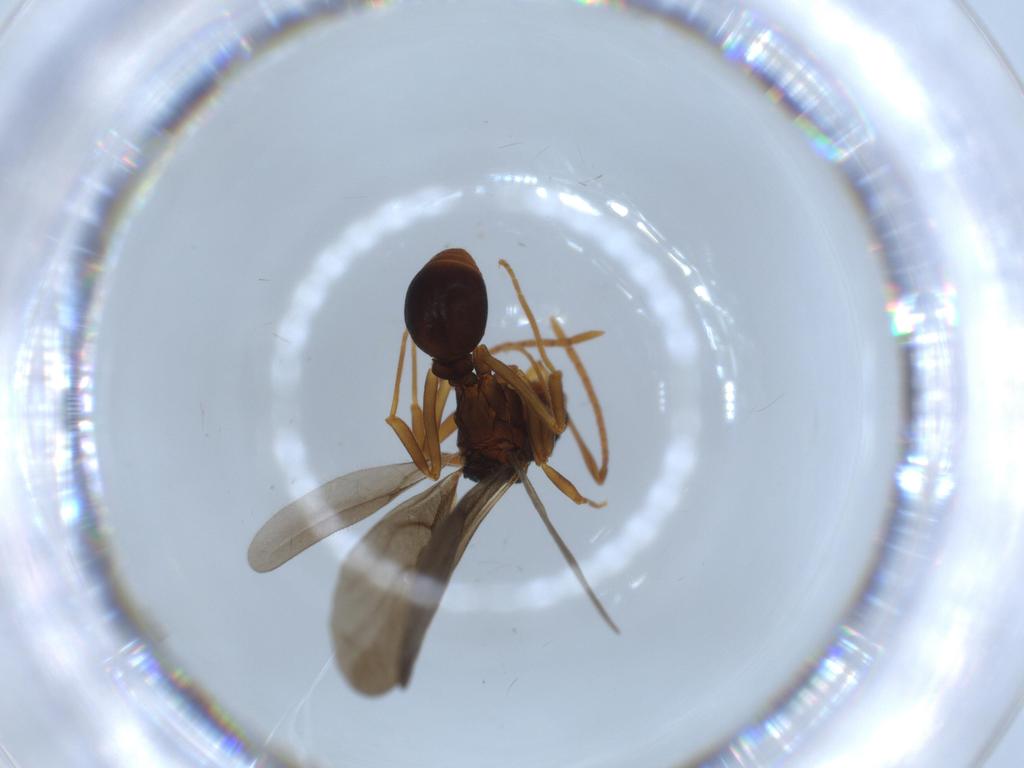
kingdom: Animalia
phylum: Arthropoda
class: Insecta
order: Hymenoptera
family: Formicidae
